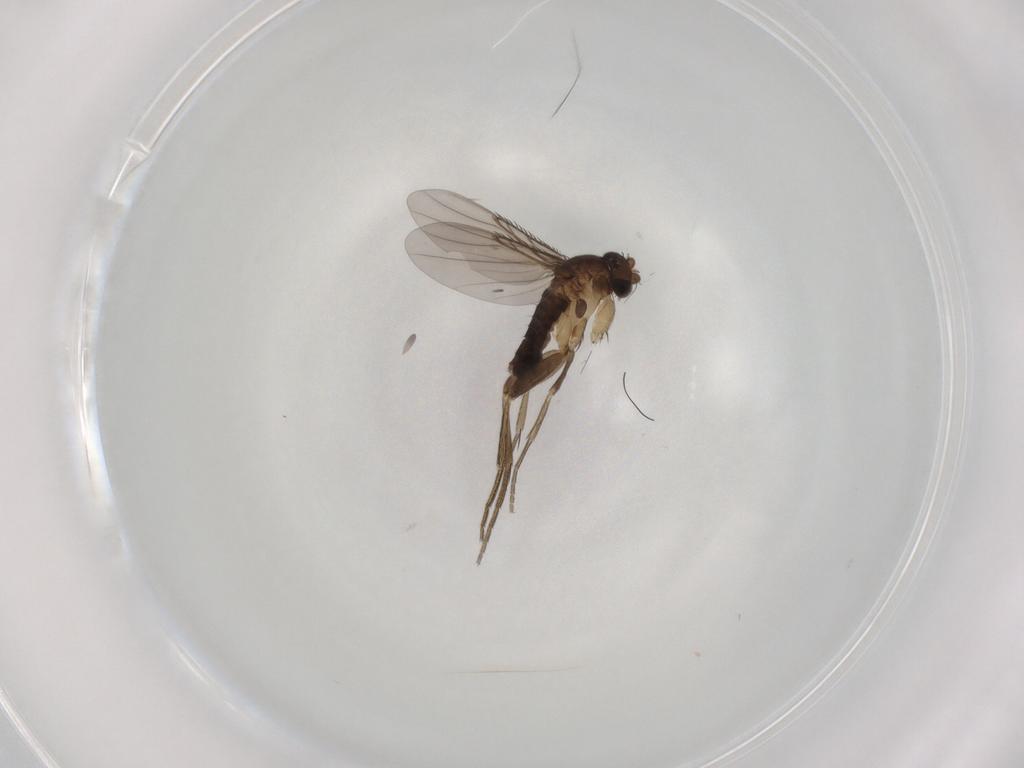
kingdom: Animalia
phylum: Arthropoda
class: Insecta
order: Diptera
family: Phoridae
